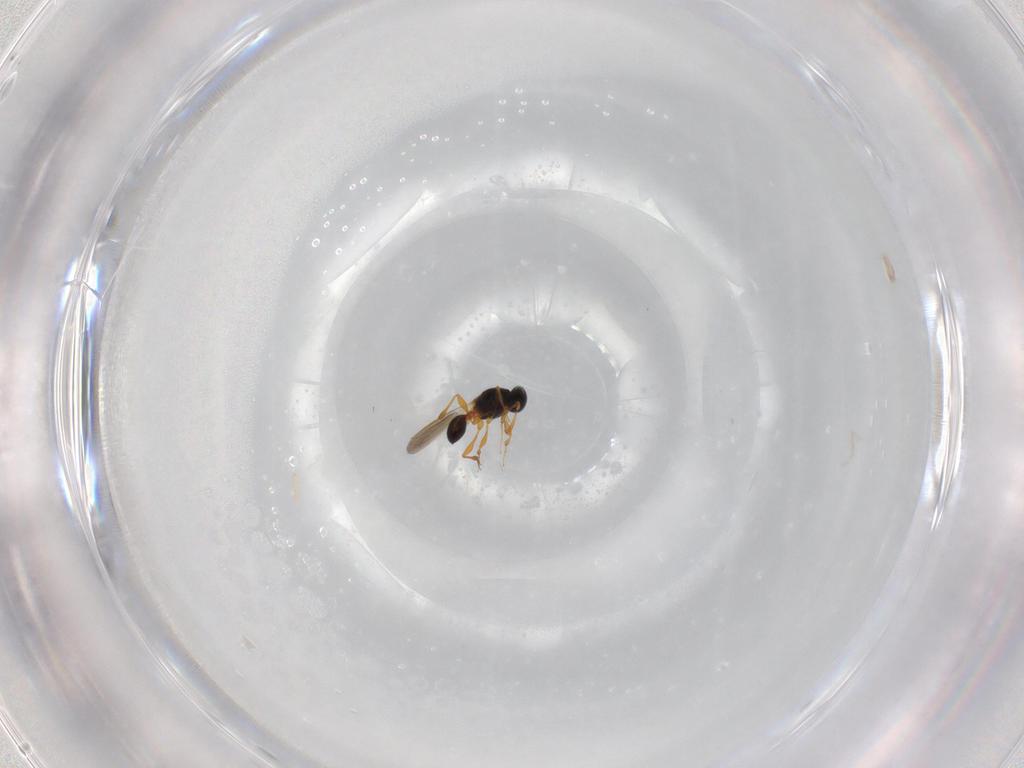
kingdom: Animalia
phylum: Arthropoda
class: Insecta
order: Hymenoptera
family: Platygastridae
